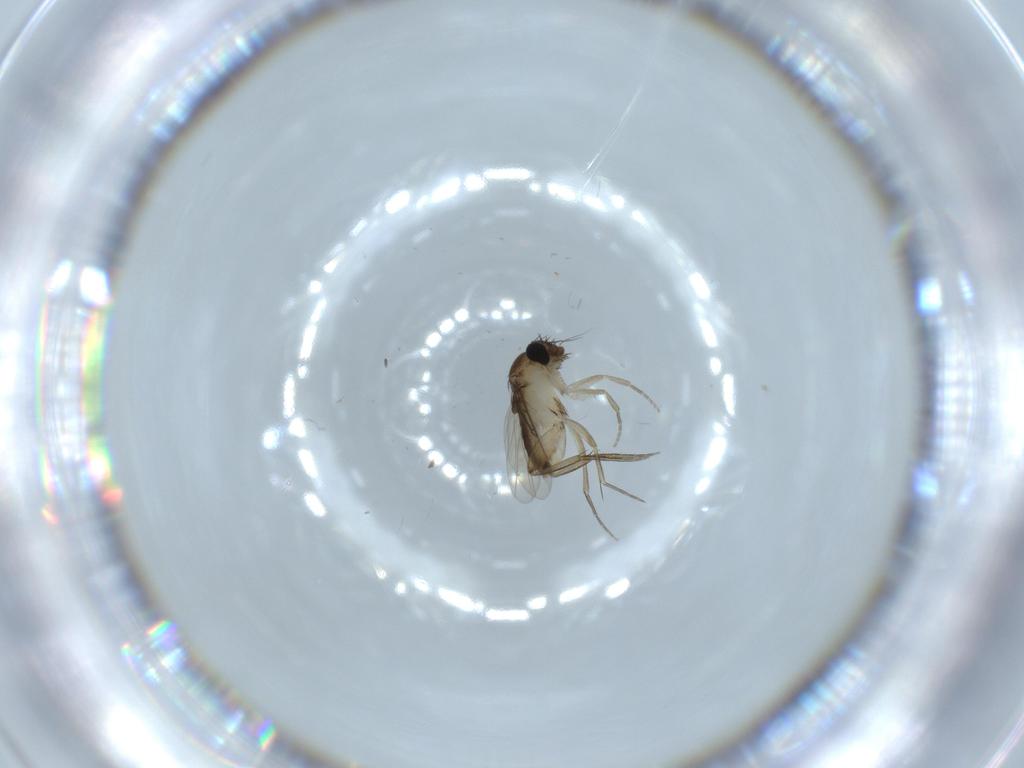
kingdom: Animalia
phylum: Arthropoda
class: Insecta
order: Diptera
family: Phoridae
